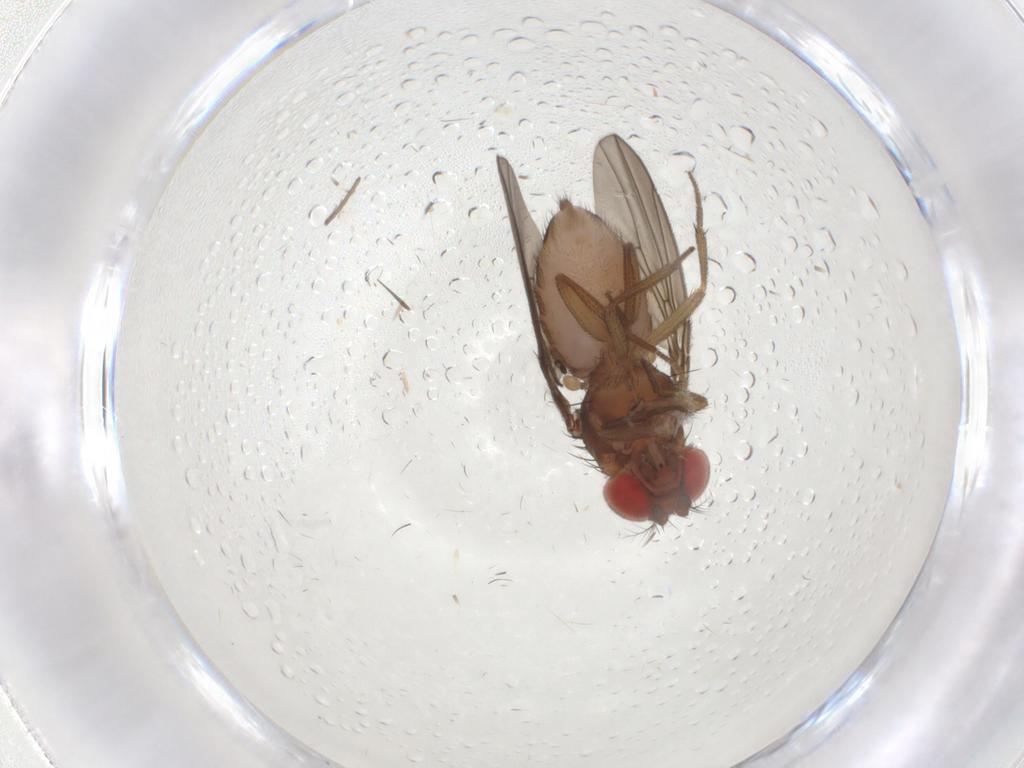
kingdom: Animalia
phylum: Arthropoda
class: Insecta
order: Diptera
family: Drosophilidae
